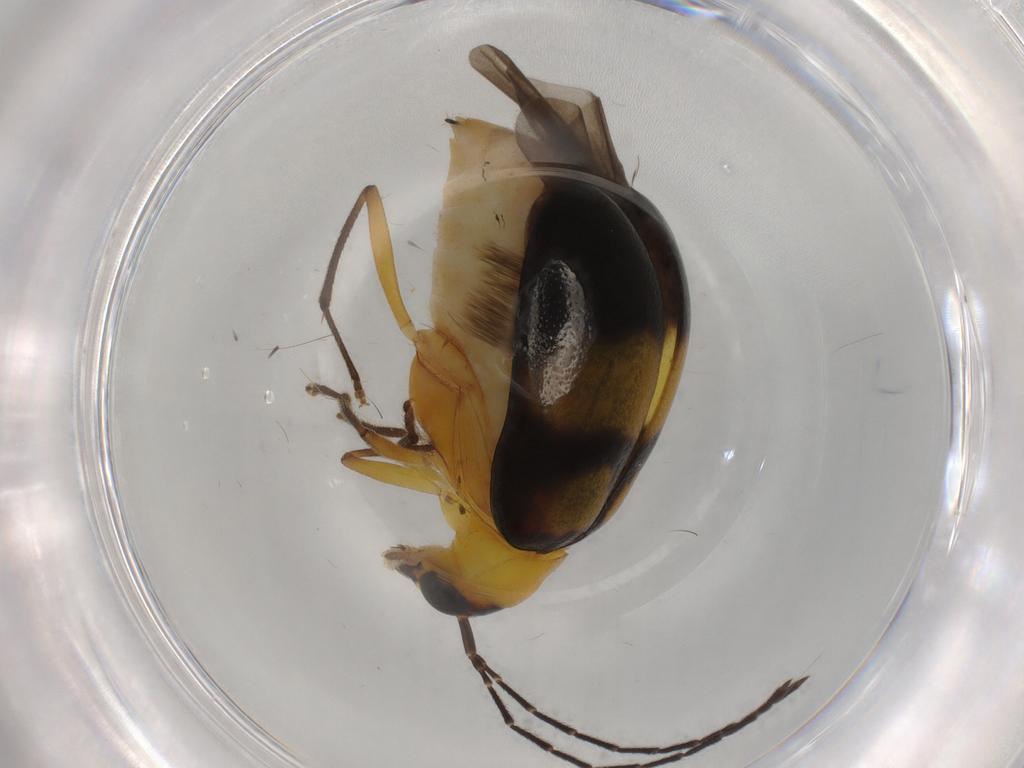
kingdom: Animalia
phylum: Arthropoda
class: Insecta
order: Coleoptera
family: Chrysomelidae
